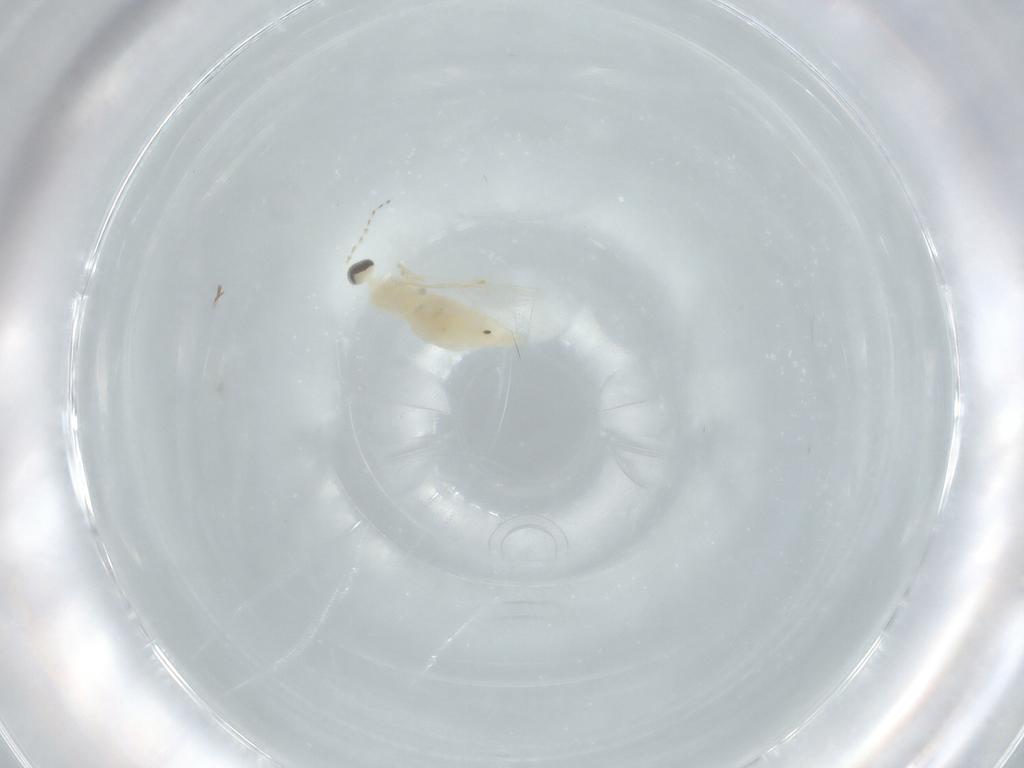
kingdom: Animalia
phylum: Arthropoda
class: Insecta
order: Diptera
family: Cecidomyiidae
